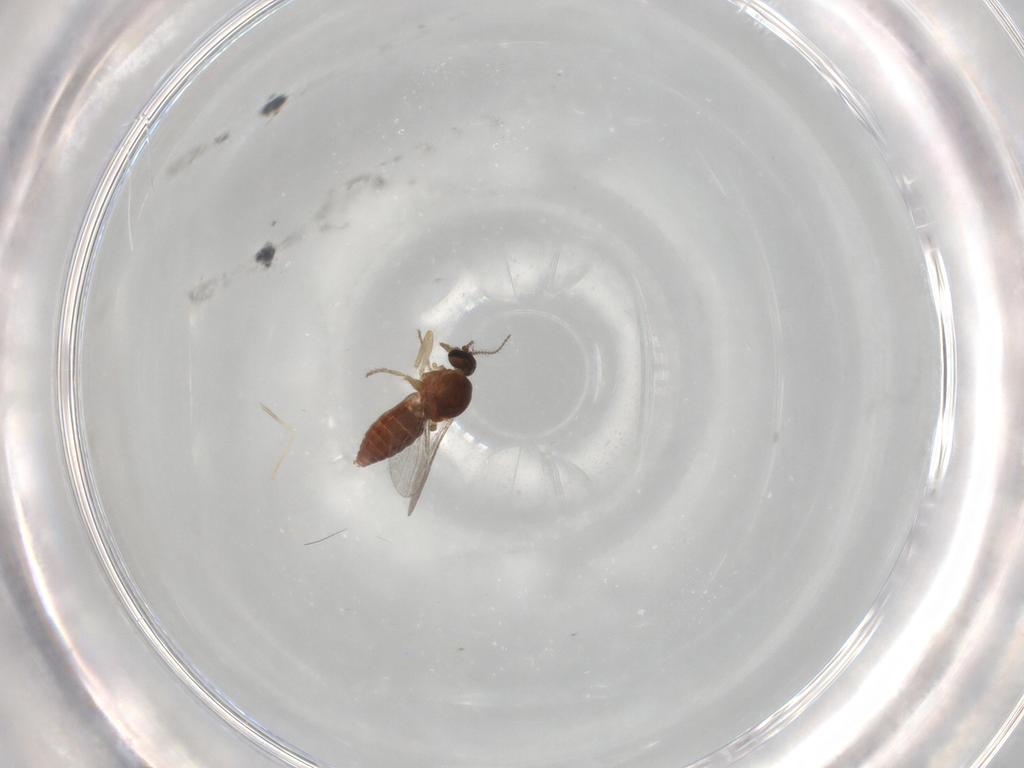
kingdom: Animalia
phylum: Arthropoda
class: Insecta
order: Diptera
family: Ceratopogonidae
